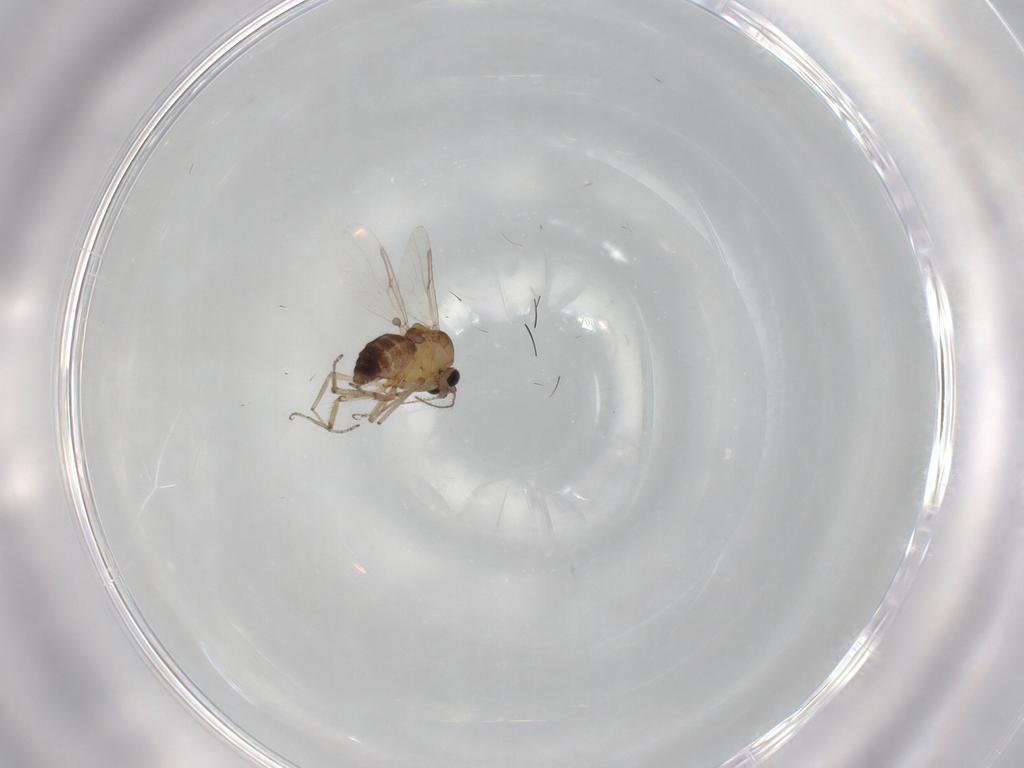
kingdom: Animalia
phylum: Arthropoda
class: Insecta
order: Diptera
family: Ceratopogonidae
